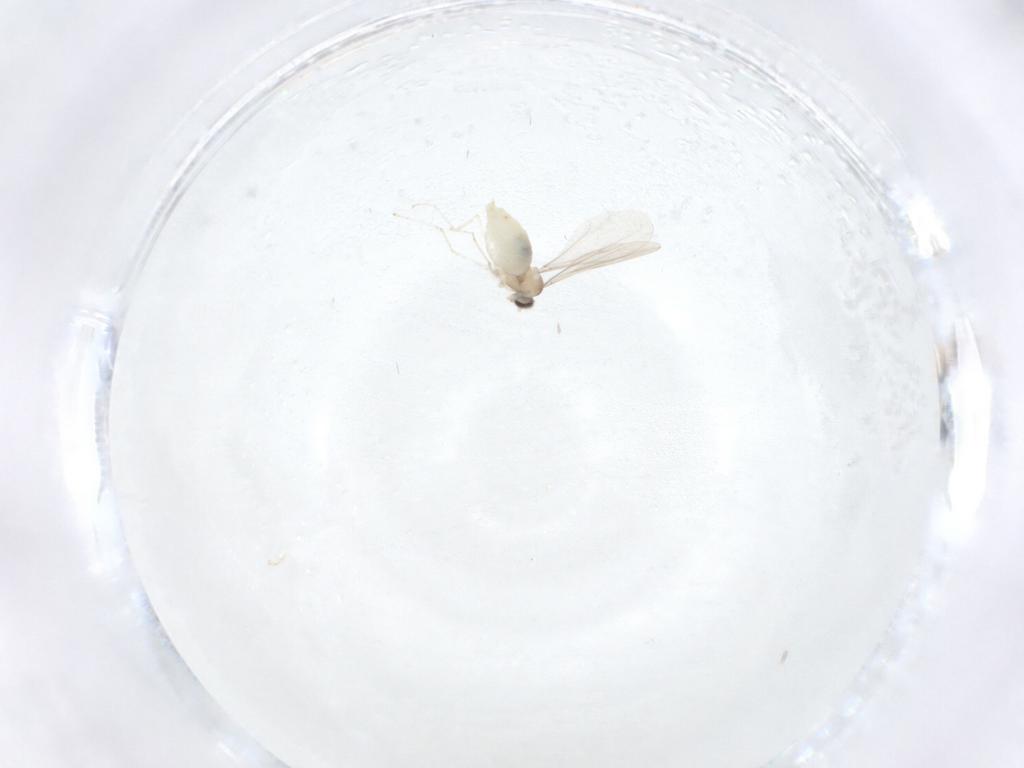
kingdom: Animalia
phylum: Arthropoda
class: Insecta
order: Diptera
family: Cecidomyiidae
